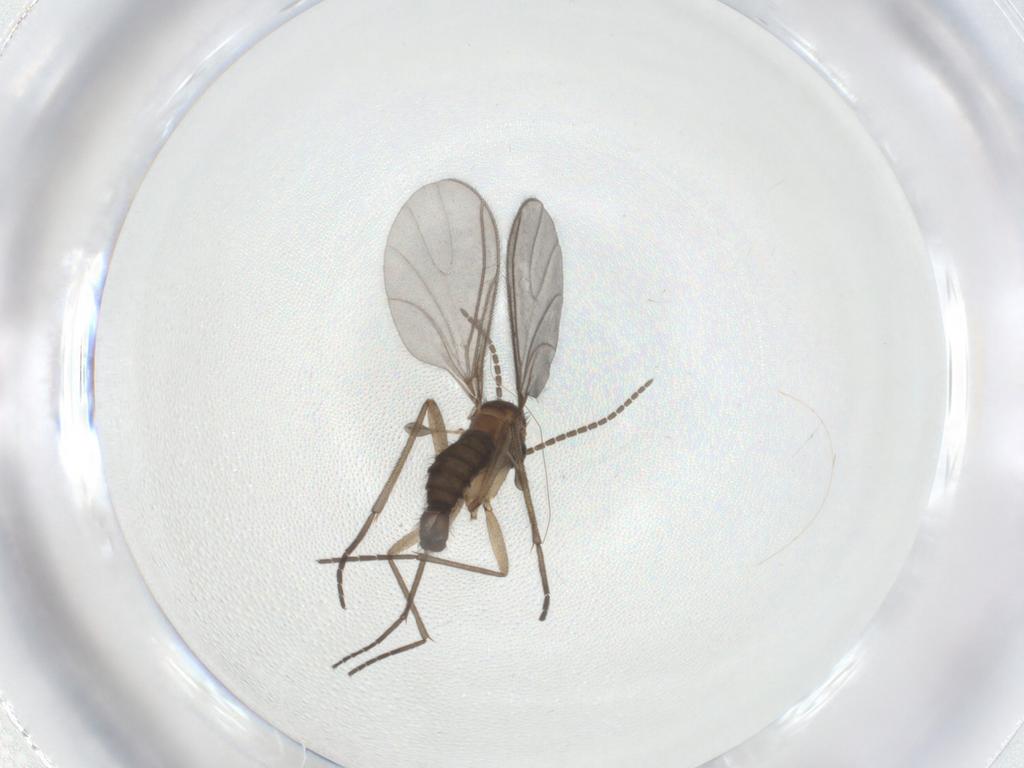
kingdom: Animalia
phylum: Arthropoda
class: Insecta
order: Diptera
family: Sciaridae
